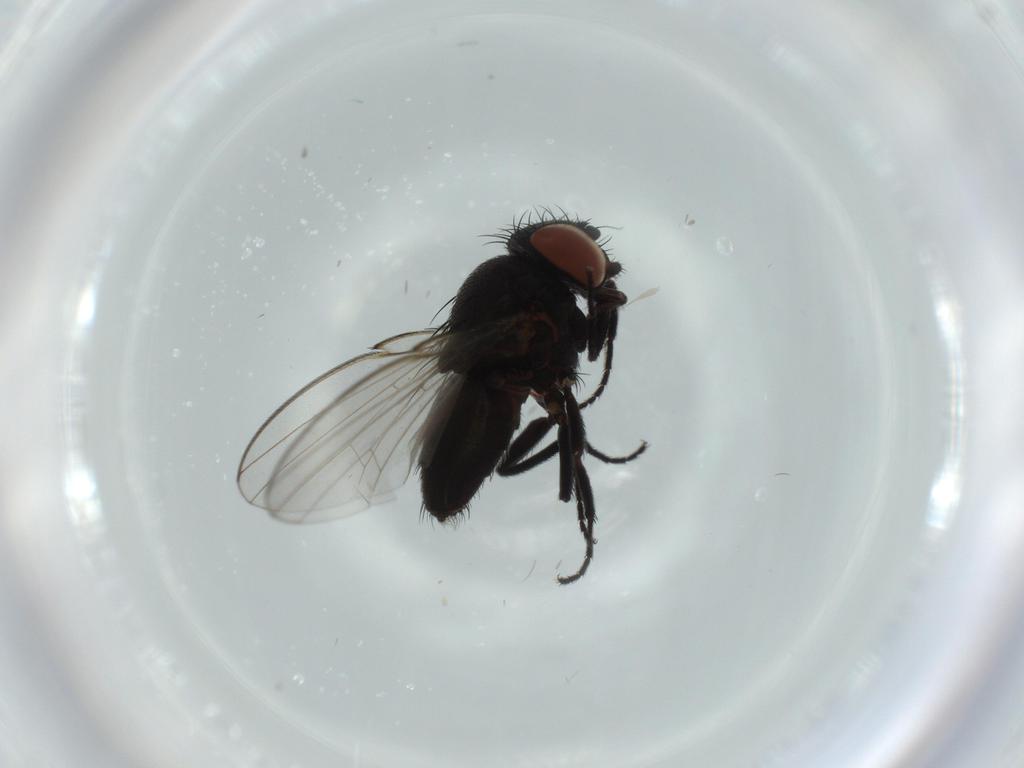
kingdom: Animalia
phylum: Arthropoda
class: Insecta
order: Diptera
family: Milichiidae
